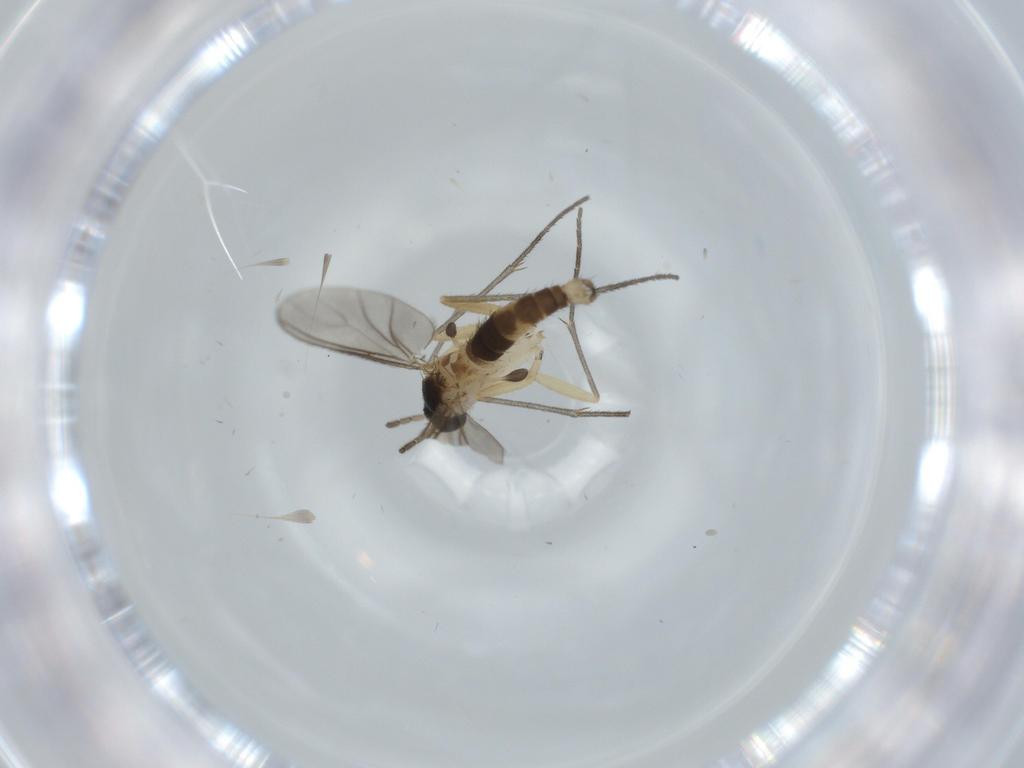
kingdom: Animalia
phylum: Arthropoda
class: Insecta
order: Diptera
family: Sciaridae
